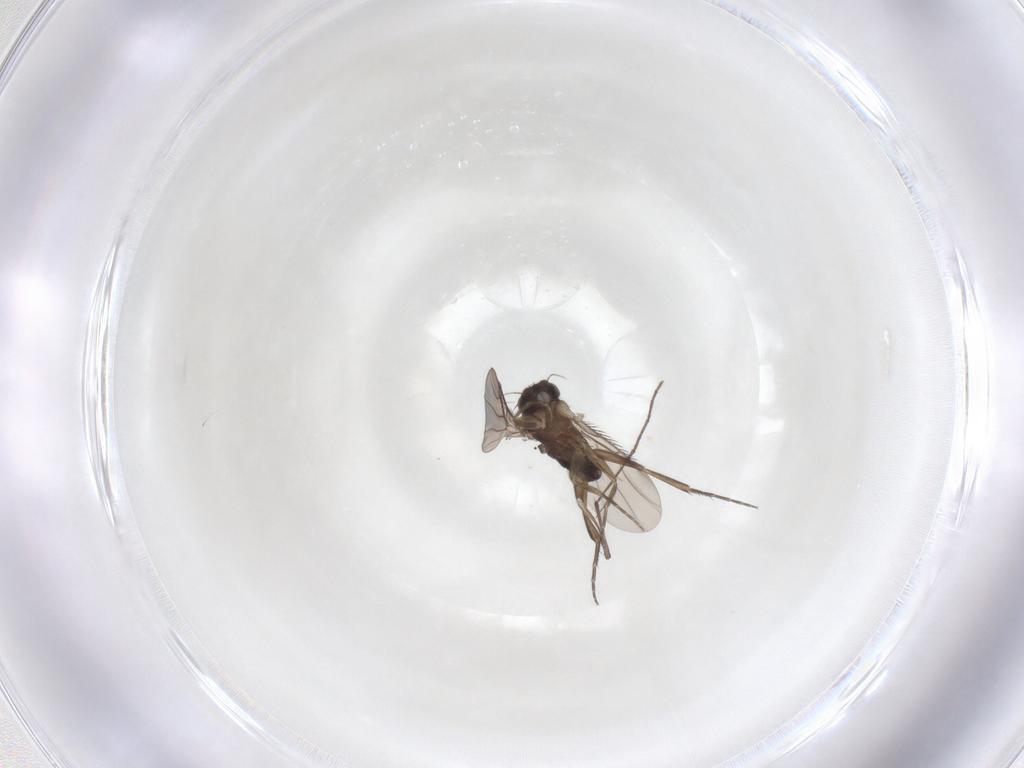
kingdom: Animalia
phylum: Arthropoda
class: Insecta
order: Diptera
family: Chironomidae
